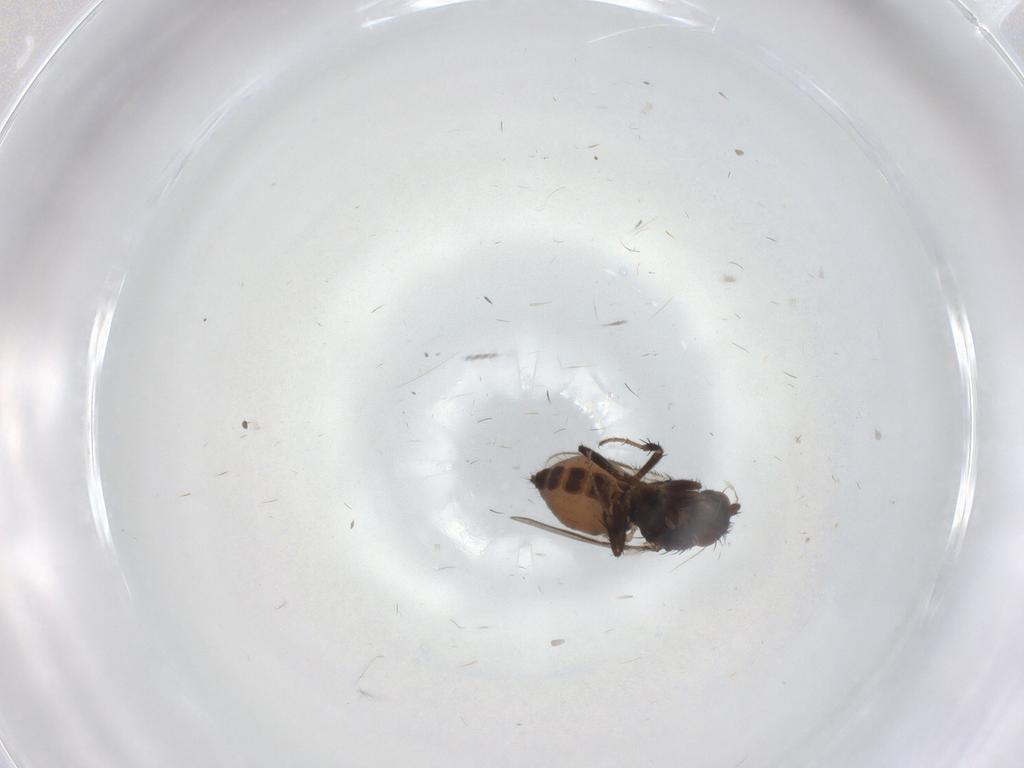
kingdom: Animalia
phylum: Arthropoda
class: Insecta
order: Diptera
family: Sphaeroceridae
